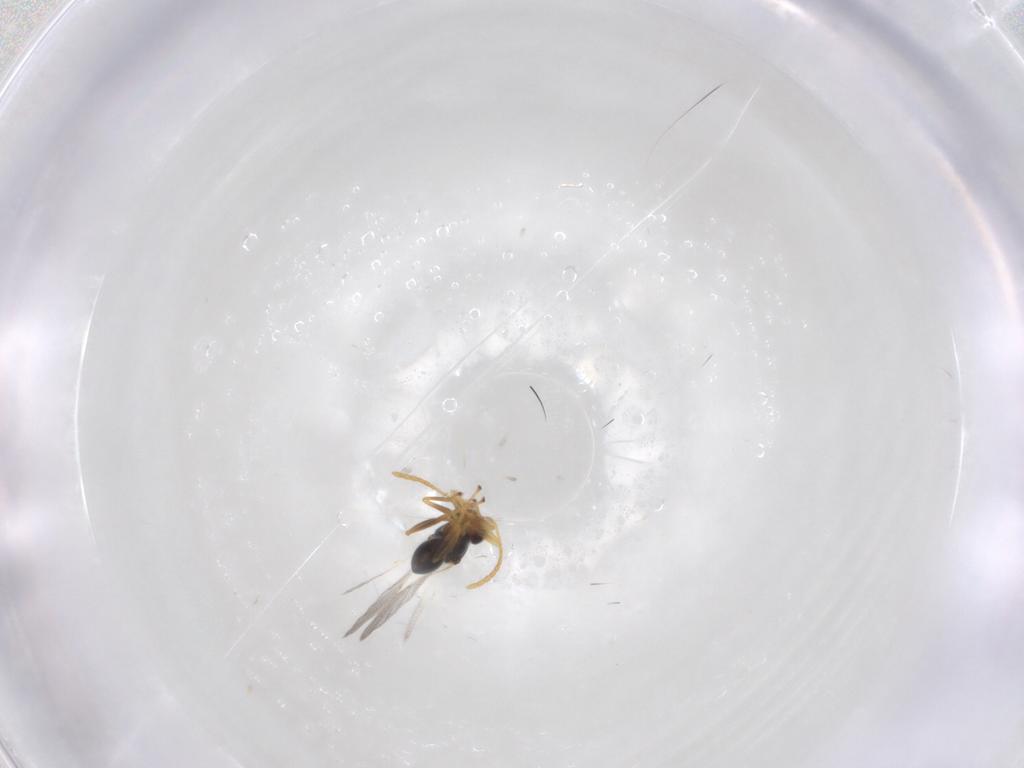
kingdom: Animalia
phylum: Arthropoda
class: Insecta
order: Hymenoptera
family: Figitidae
